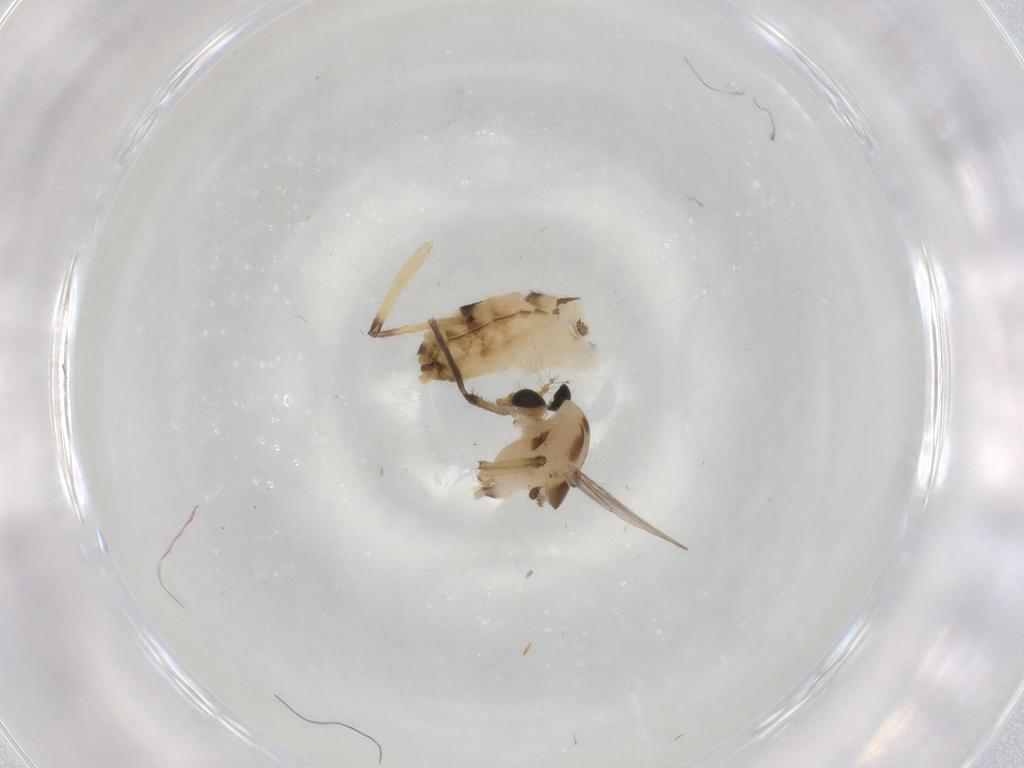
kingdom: Animalia
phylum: Arthropoda
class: Insecta
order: Diptera
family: Chironomidae
